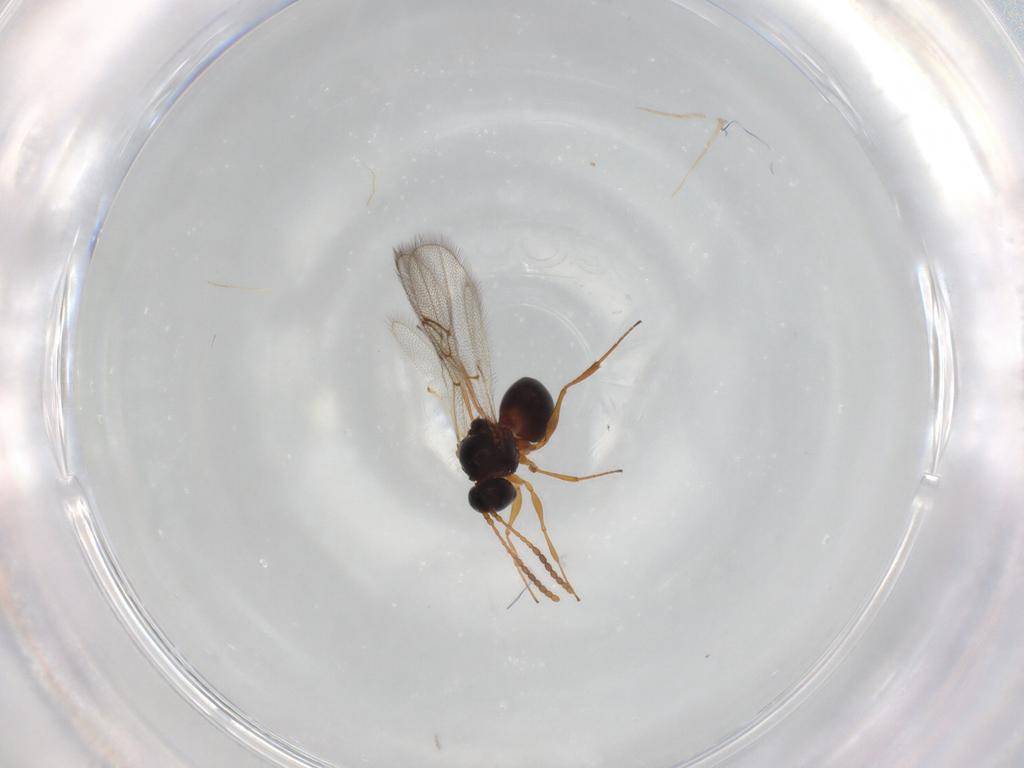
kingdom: Animalia
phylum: Arthropoda
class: Insecta
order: Hymenoptera
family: Figitidae
